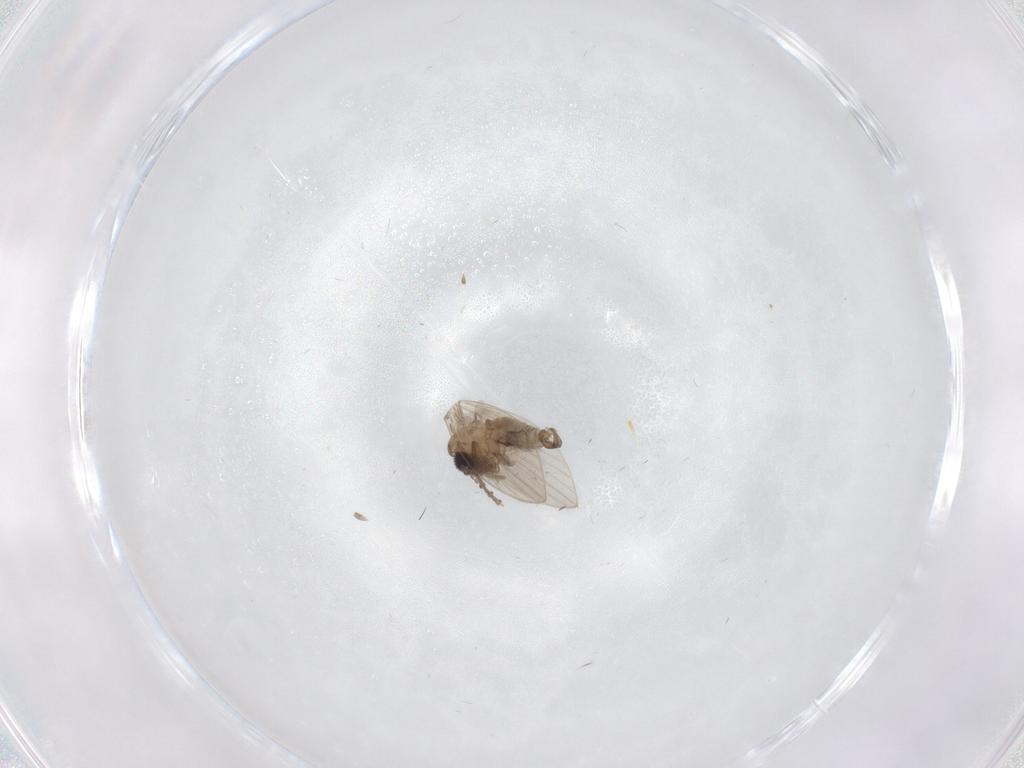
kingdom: Animalia
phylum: Arthropoda
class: Insecta
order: Diptera
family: Psychodidae
